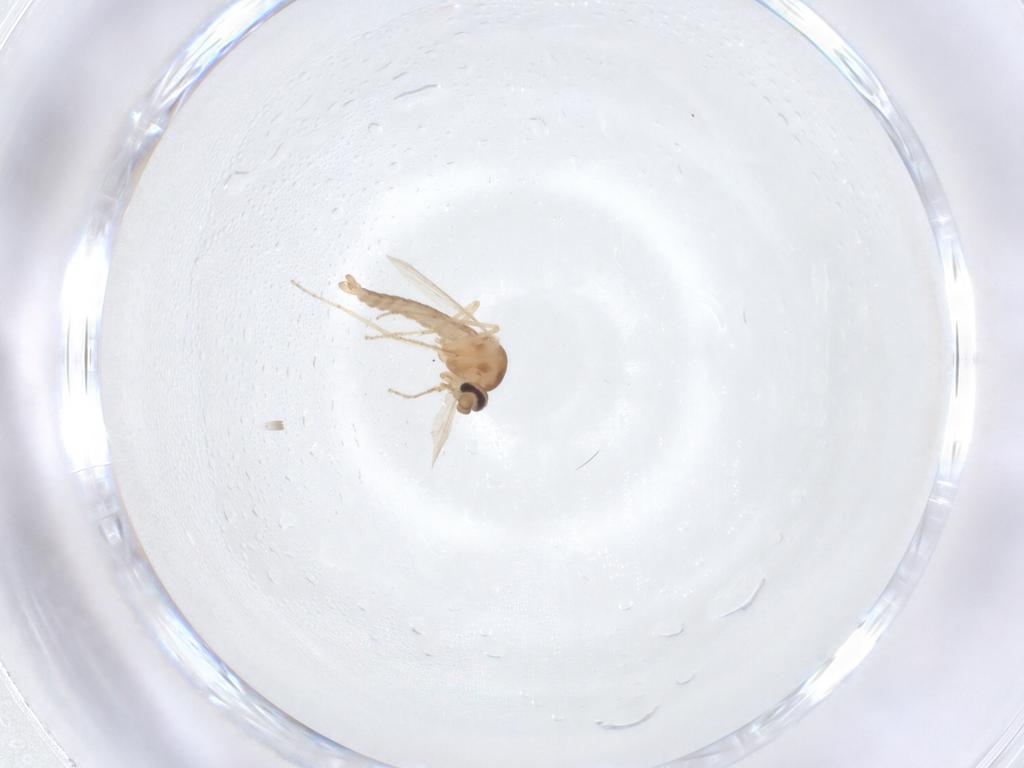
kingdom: Animalia
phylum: Arthropoda
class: Insecta
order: Diptera
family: Ceratopogonidae
